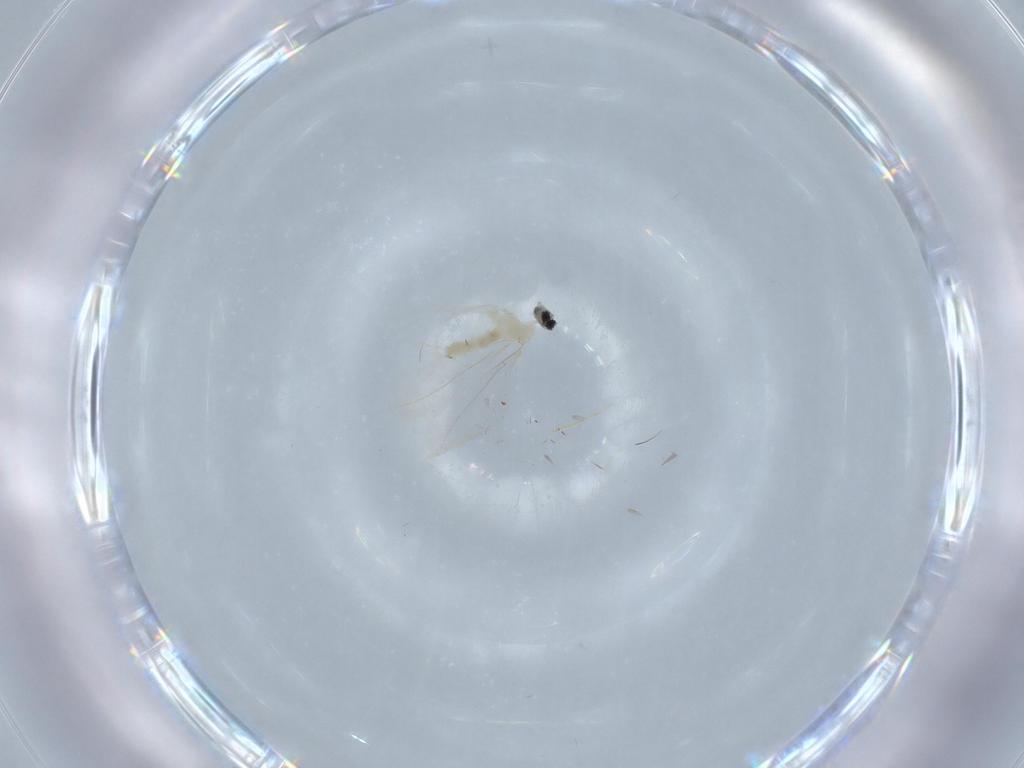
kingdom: Animalia
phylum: Arthropoda
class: Insecta
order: Diptera
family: Cecidomyiidae
